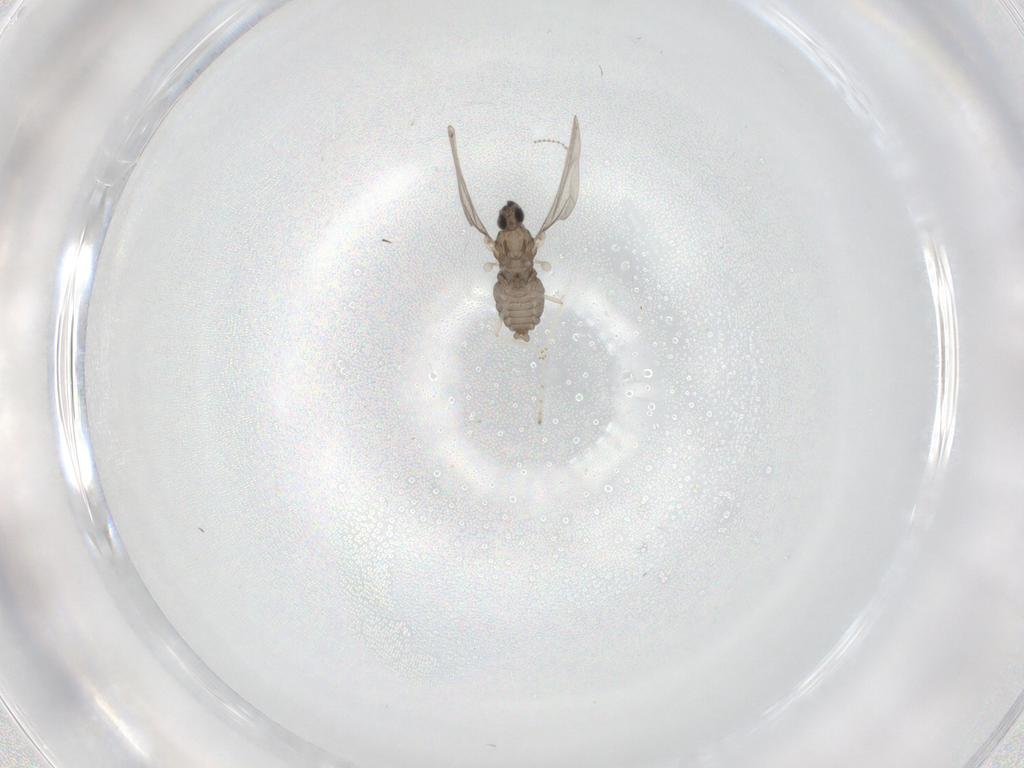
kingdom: Animalia
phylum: Arthropoda
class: Insecta
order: Diptera
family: Cecidomyiidae
